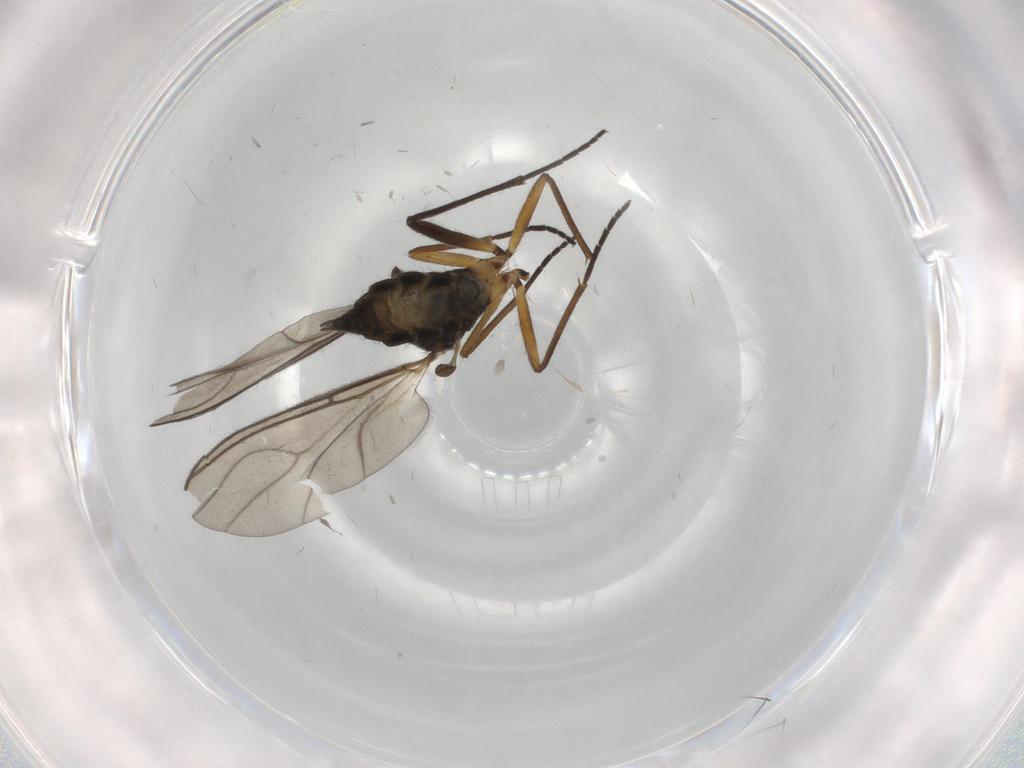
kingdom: Animalia
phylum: Arthropoda
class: Insecta
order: Diptera
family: Sciaridae
